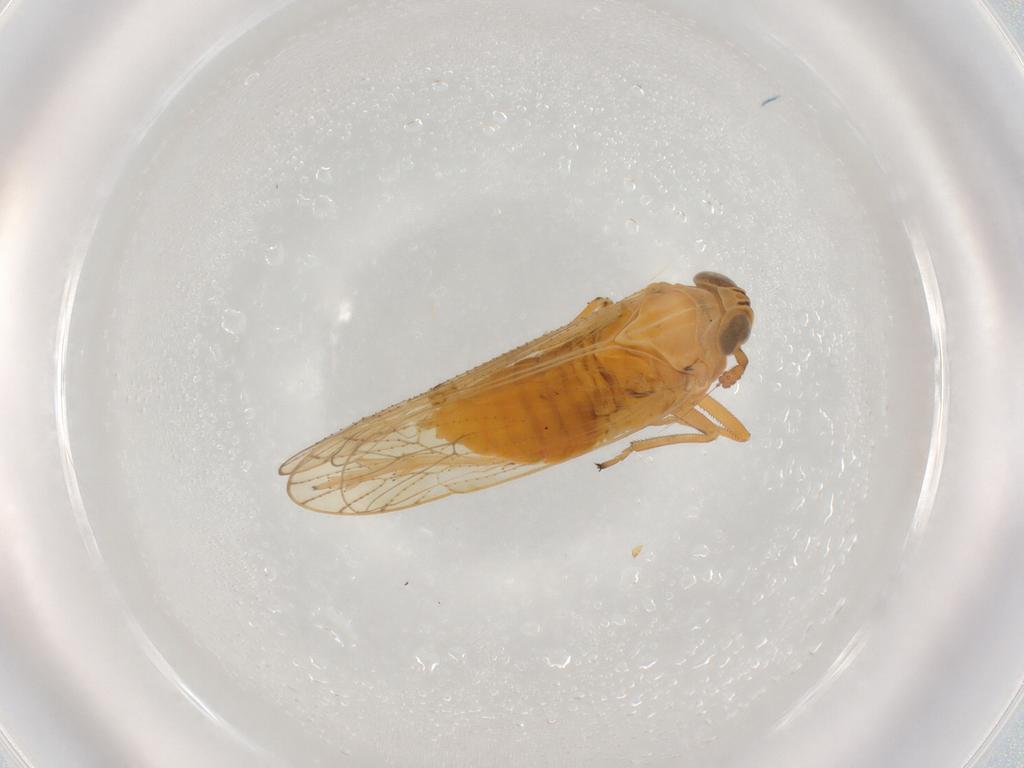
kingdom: Animalia
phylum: Arthropoda
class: Insecta
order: Hemiptera
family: Delphacidae
